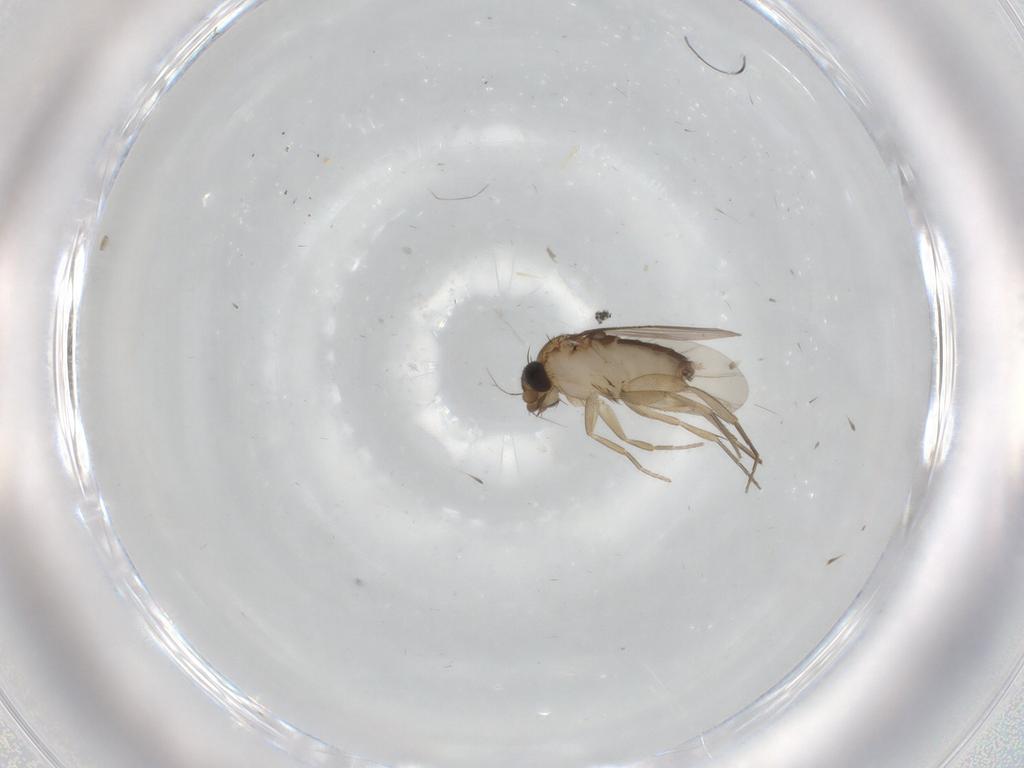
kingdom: Animalia
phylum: Arthropoda
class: Insecta
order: Diptera
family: Phoridae
